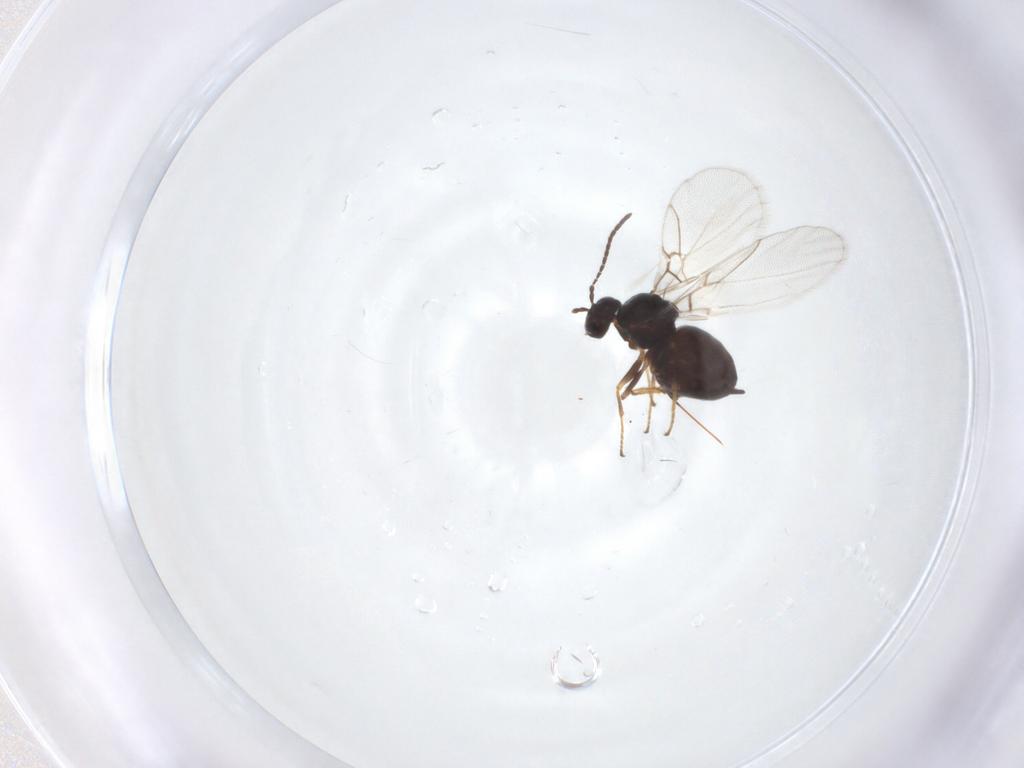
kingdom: Animalia
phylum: Arthropoda
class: Insecta
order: Hymenoptera
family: Cynipidae
